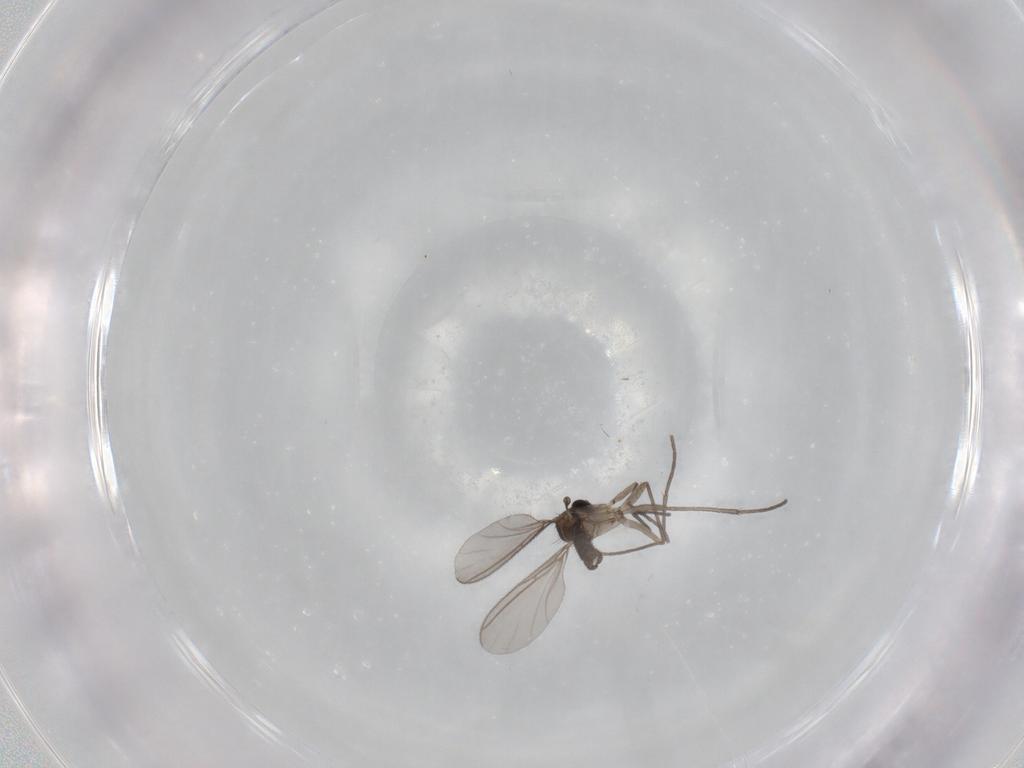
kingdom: Animalia
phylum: Arthropoda
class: Insecta
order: Diptera
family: Sciaridae
